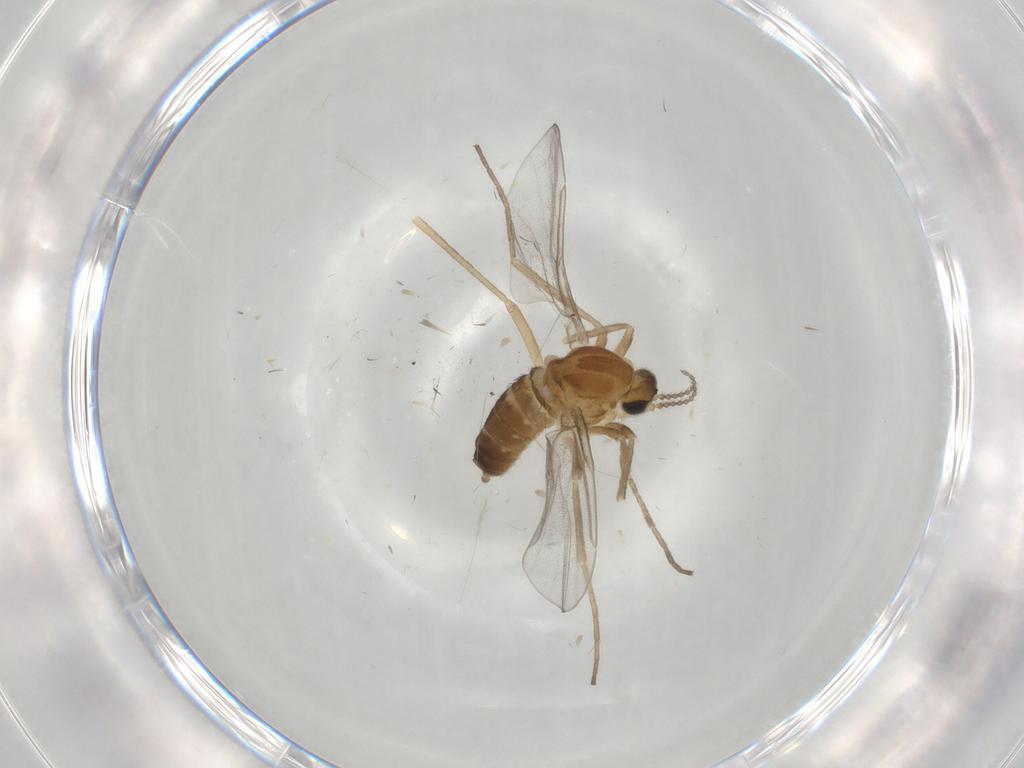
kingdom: Animalia
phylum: Arthropoda
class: Insecta
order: Diptera
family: Cecidomyiidae
